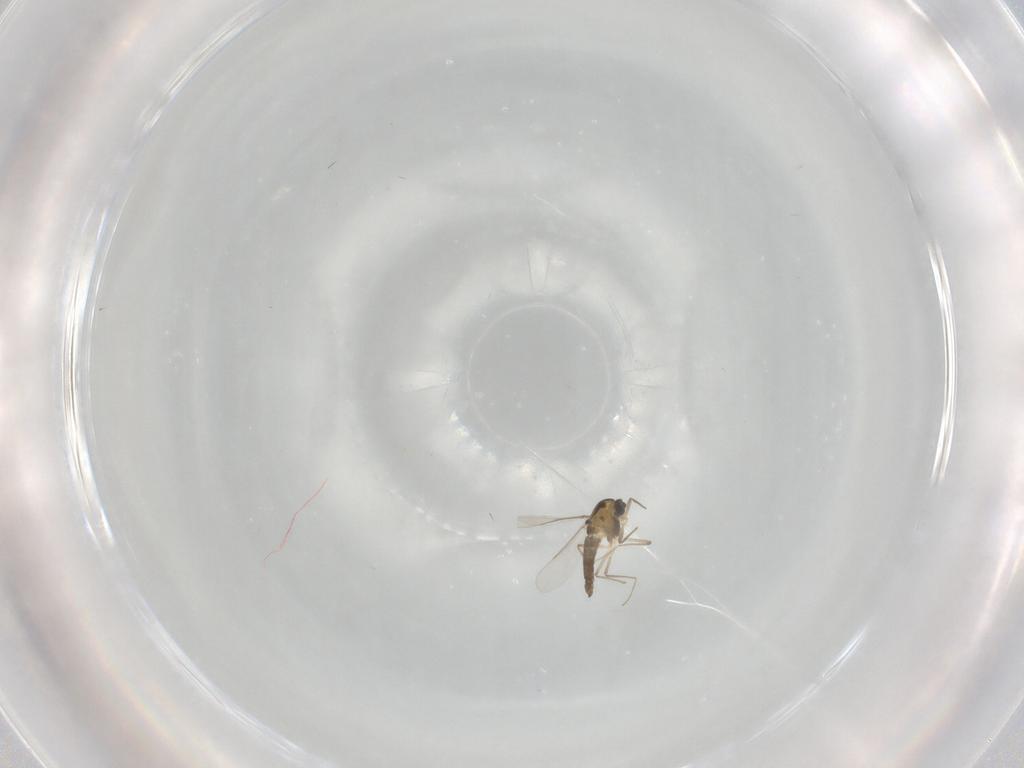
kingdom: Animalia
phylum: Arthropoda
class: Insecta
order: Diptera
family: Chironomidae
